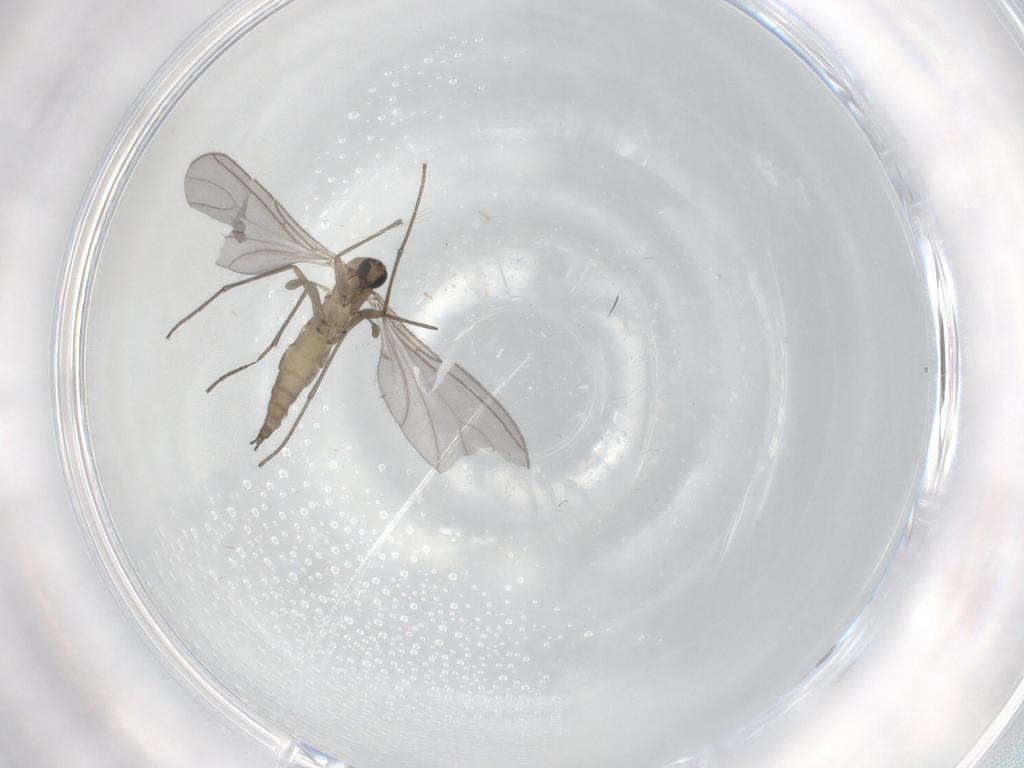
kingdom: Animalia
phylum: Arthropoda
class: Insecta
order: Diptera
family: Sciaridae
